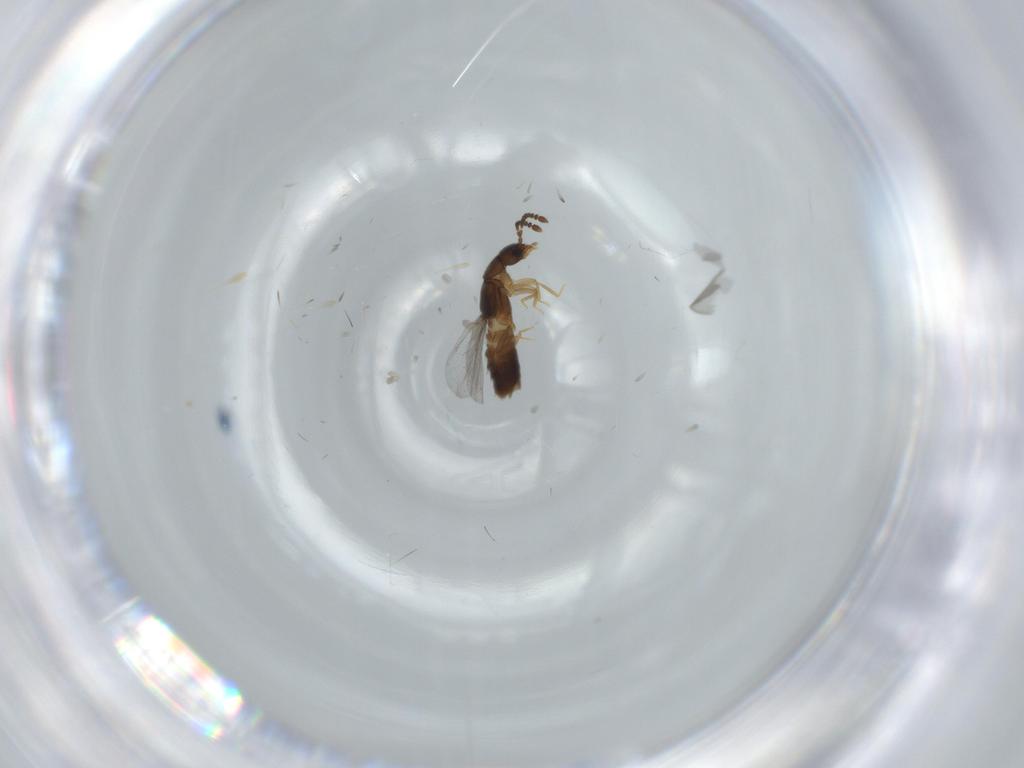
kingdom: Animalia
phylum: Arthropoda
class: Insecta
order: Coleoptera
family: Staphylinidae
